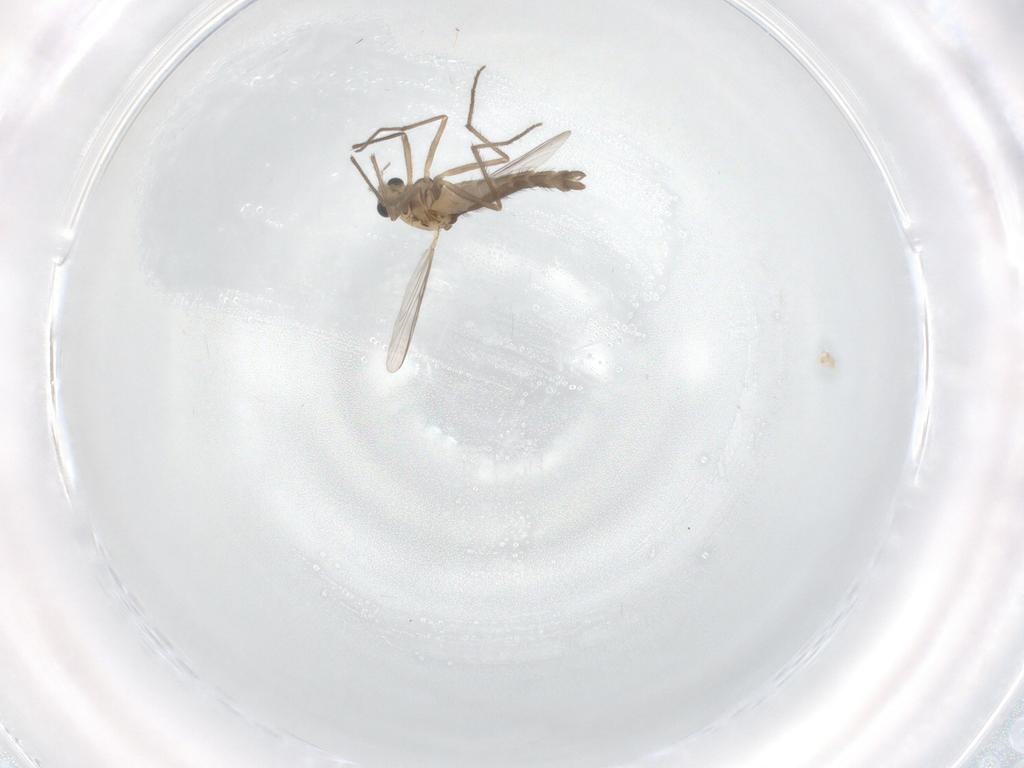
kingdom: Animalia
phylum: Arthropoda
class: Insecta
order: Diptera
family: Chironomidae
